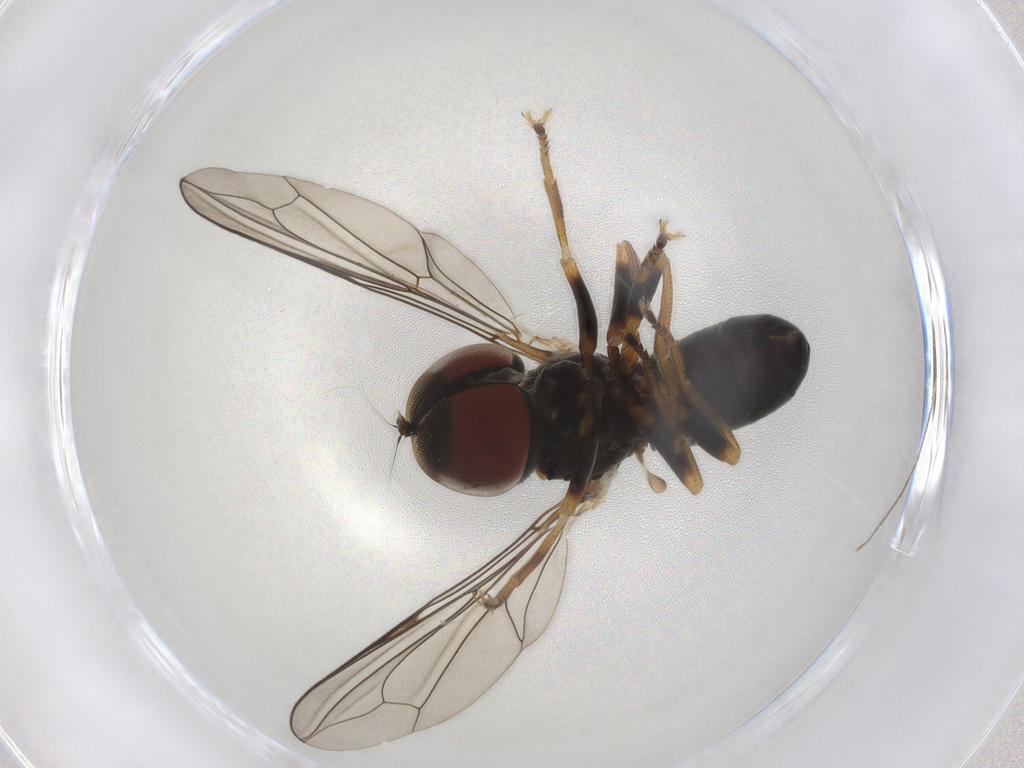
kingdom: Animalia
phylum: Arthropoda
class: Insecta
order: Diptera
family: Pipunculidae
